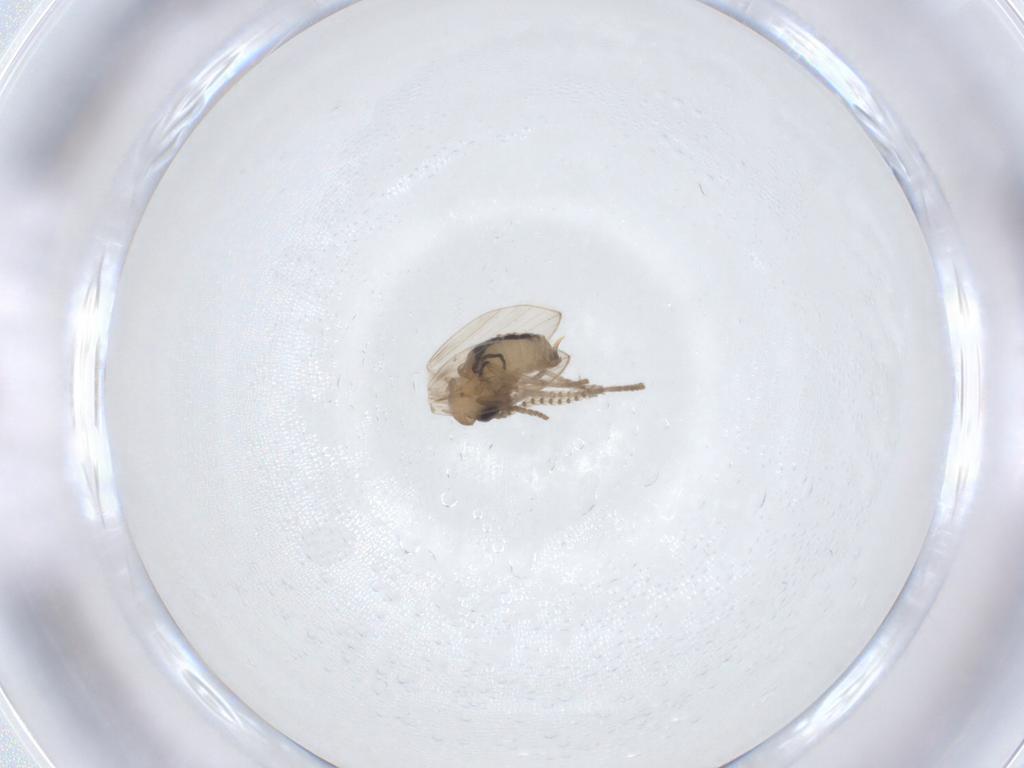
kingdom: Animalia
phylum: Arthropoda
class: Insecta
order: Diptera
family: Psychodidae
